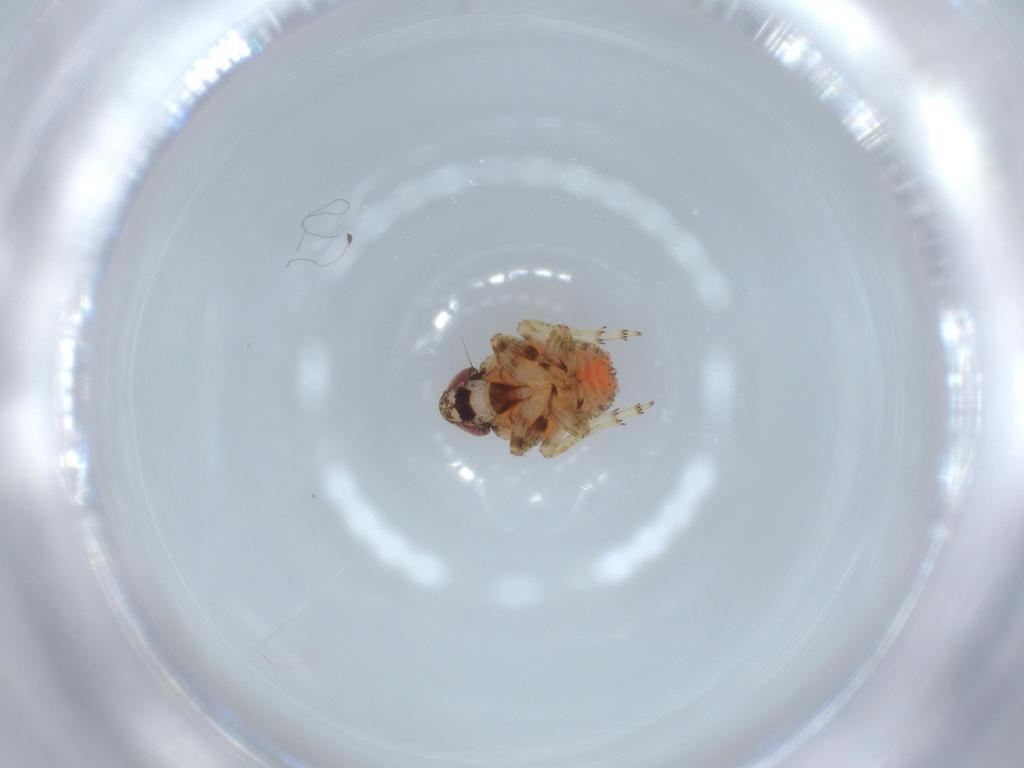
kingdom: Animalia
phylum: Arthropoda
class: Insecta
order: Hemiptera
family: Issidae
